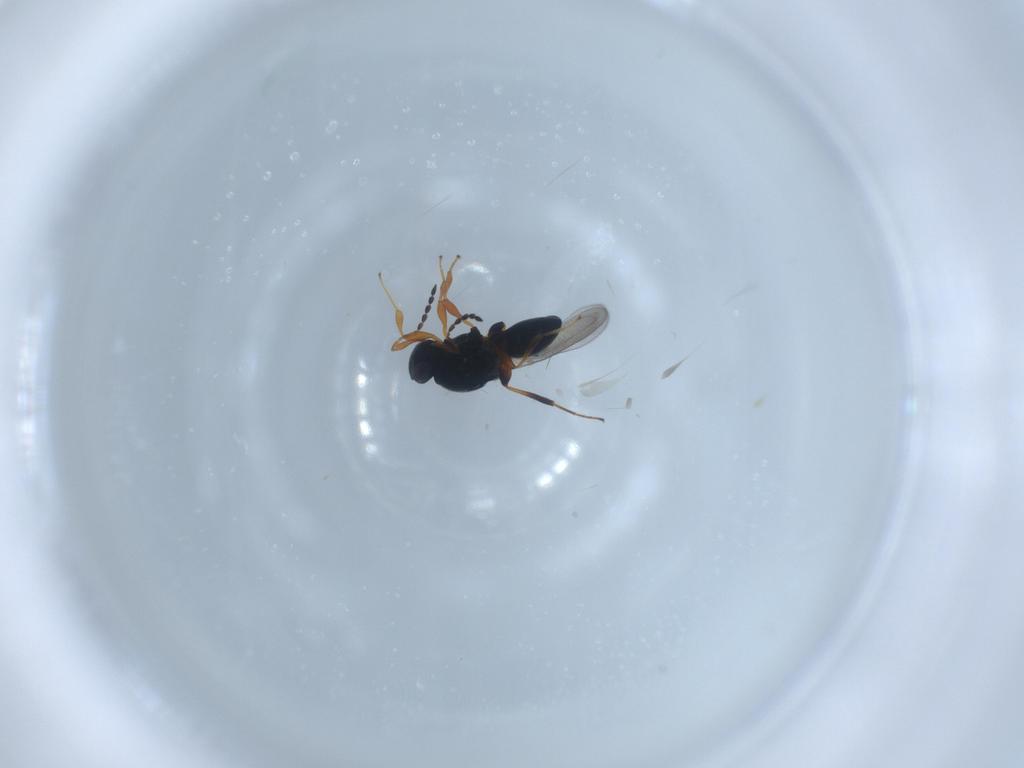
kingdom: Animalia
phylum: Arthropoda
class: Insecta
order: Hymenoptera
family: Platygastridae
